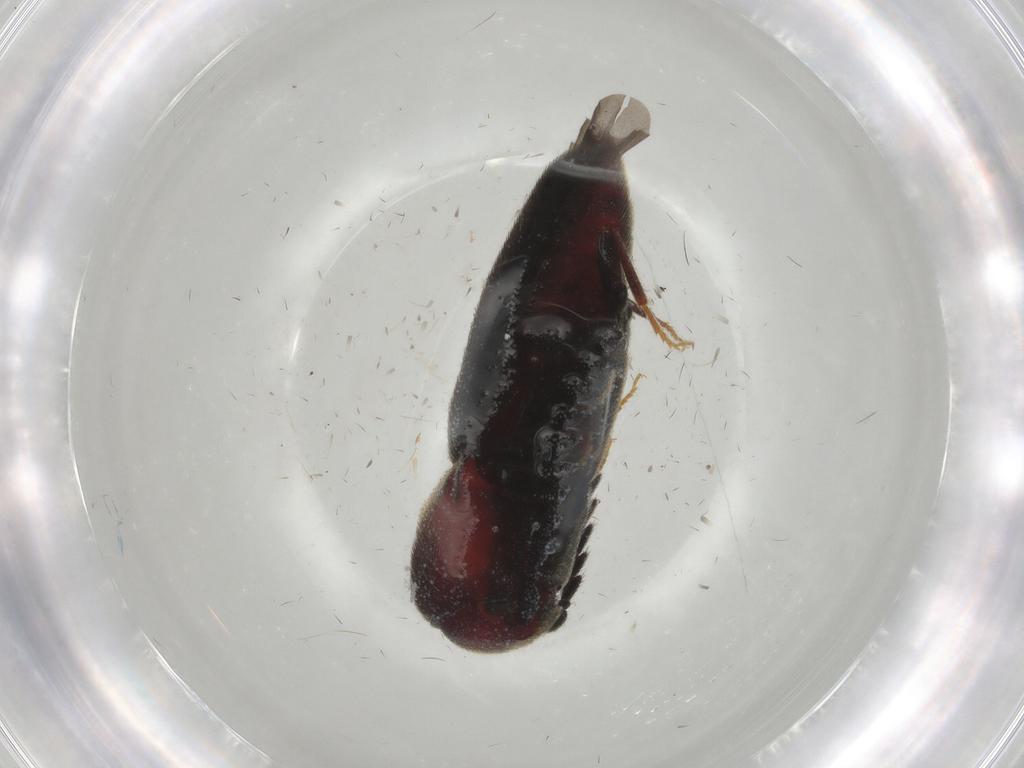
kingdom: Animalia
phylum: Arthropoda
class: Insecta
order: Coleoptera
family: Eucnemidae
